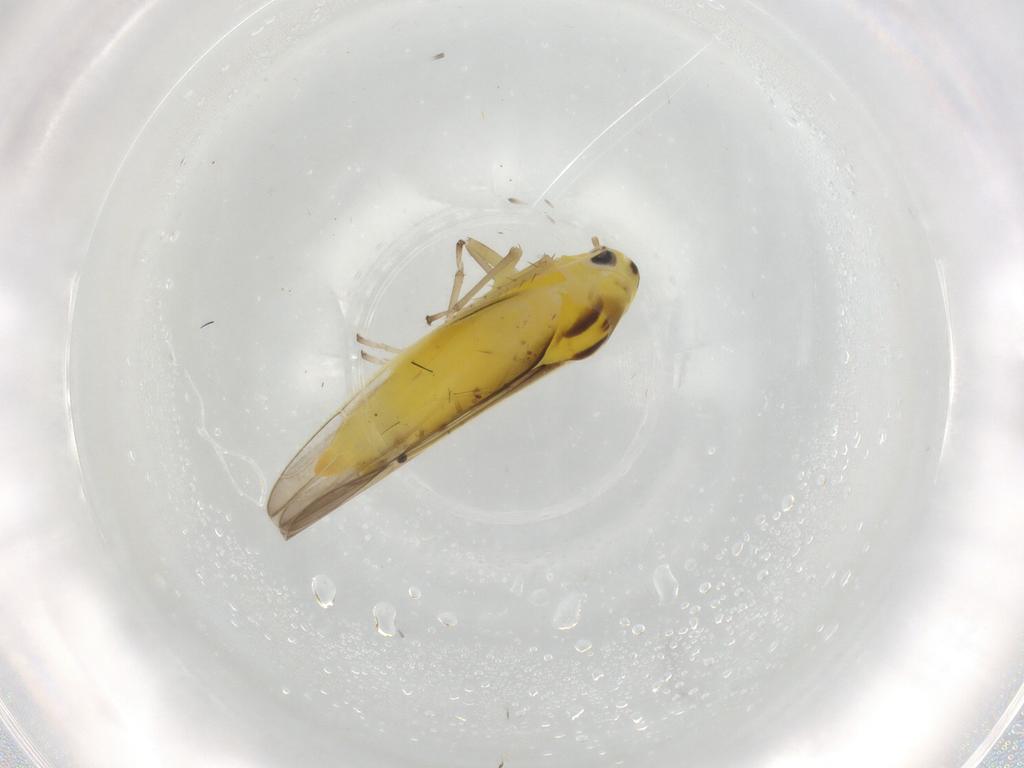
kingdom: Animalia
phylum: Arthropoda
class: Insecta
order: Hemiptera
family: Cicadellidae
